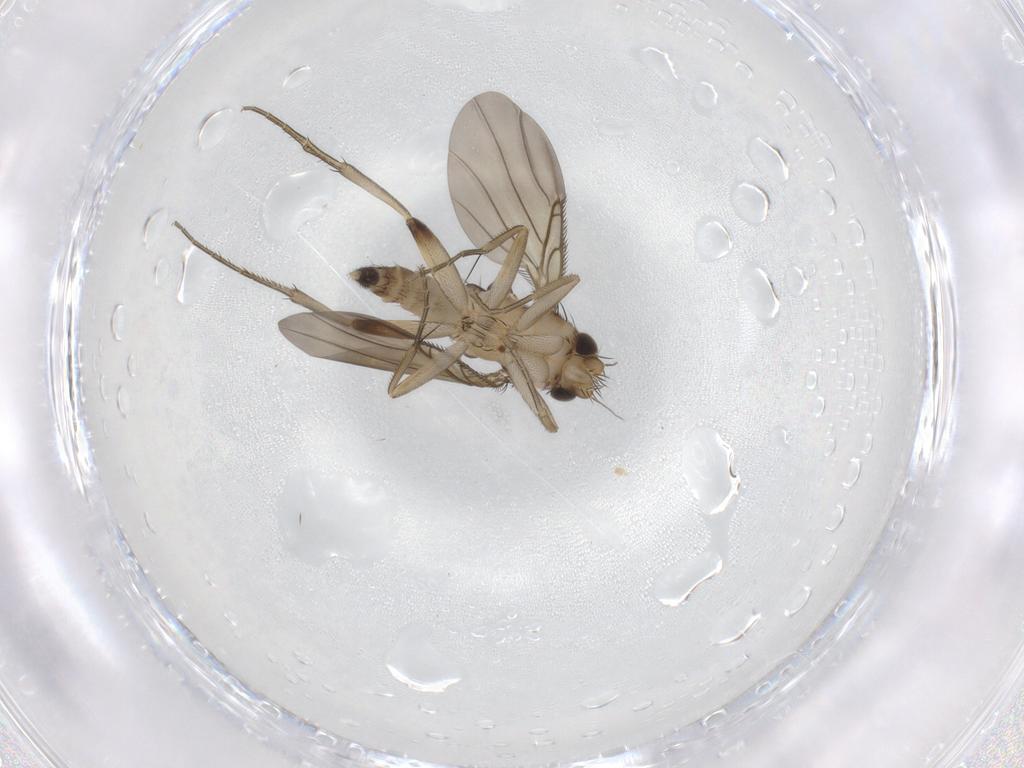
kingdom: Animalia
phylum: Arthropoda
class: Insecta
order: Diptera
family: Phoridae
